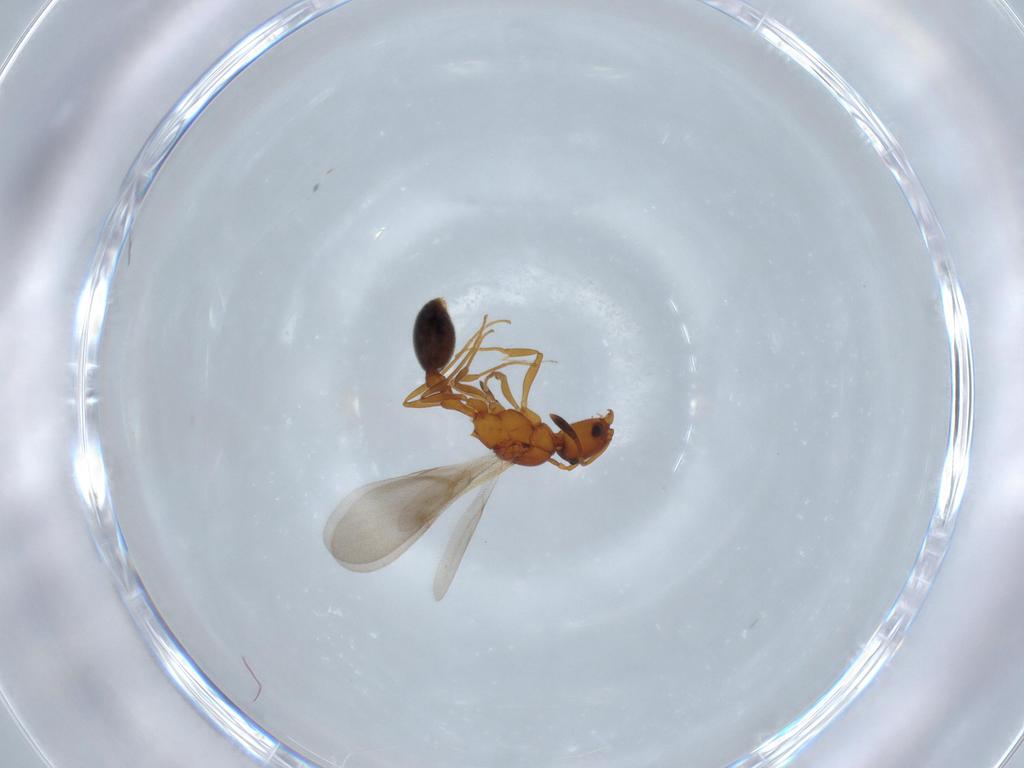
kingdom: Animalia
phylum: Arthropoda
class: Insecta
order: Hymenoptera
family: Formicidae
